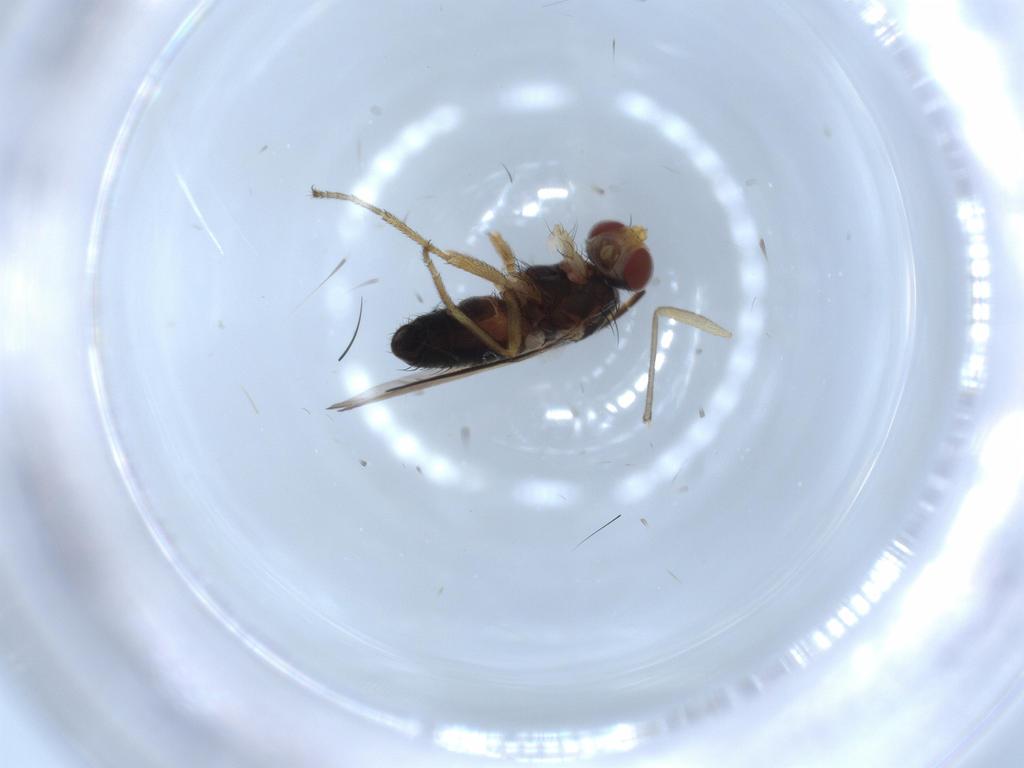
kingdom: Animalia
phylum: Arthropoda
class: Insecta
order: Diptera
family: Heleomyzidae
